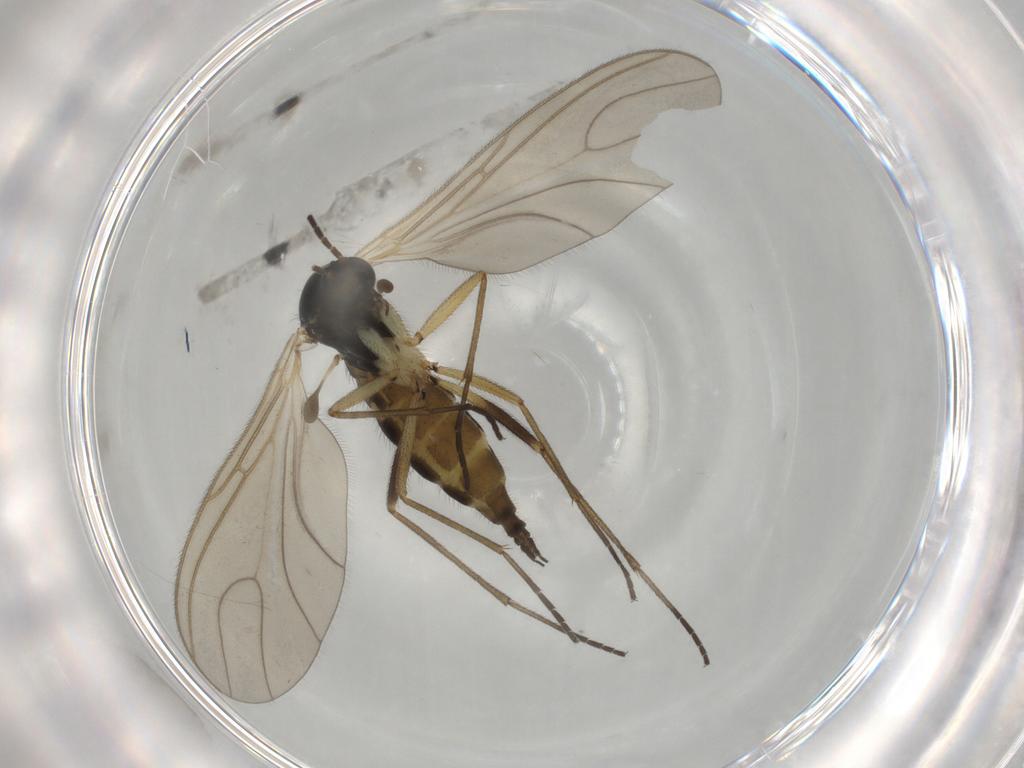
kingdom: Animalia
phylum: Arthropoda
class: Insecta
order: Diptera
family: Sciaridae
